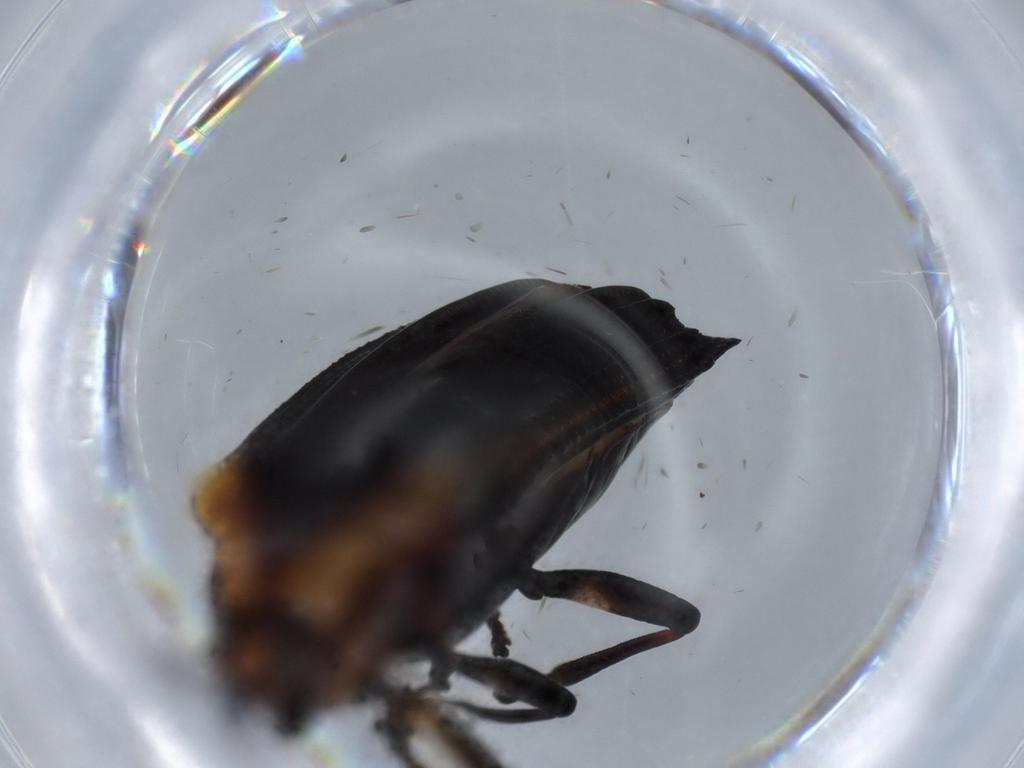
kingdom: Animalia
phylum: Arthropoda
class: Insecta
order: Coleoptera
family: Chrysomelidae
